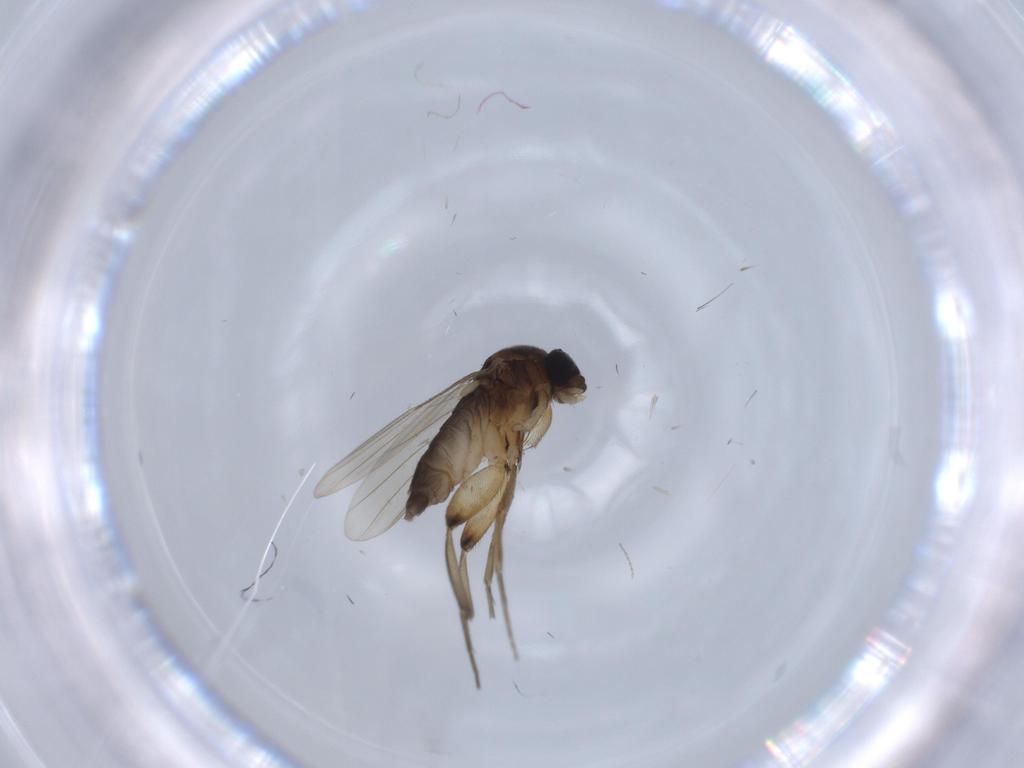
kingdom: Animalia
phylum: Arthropoda
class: Insecta
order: Diptera
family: Cecidomyiidae
